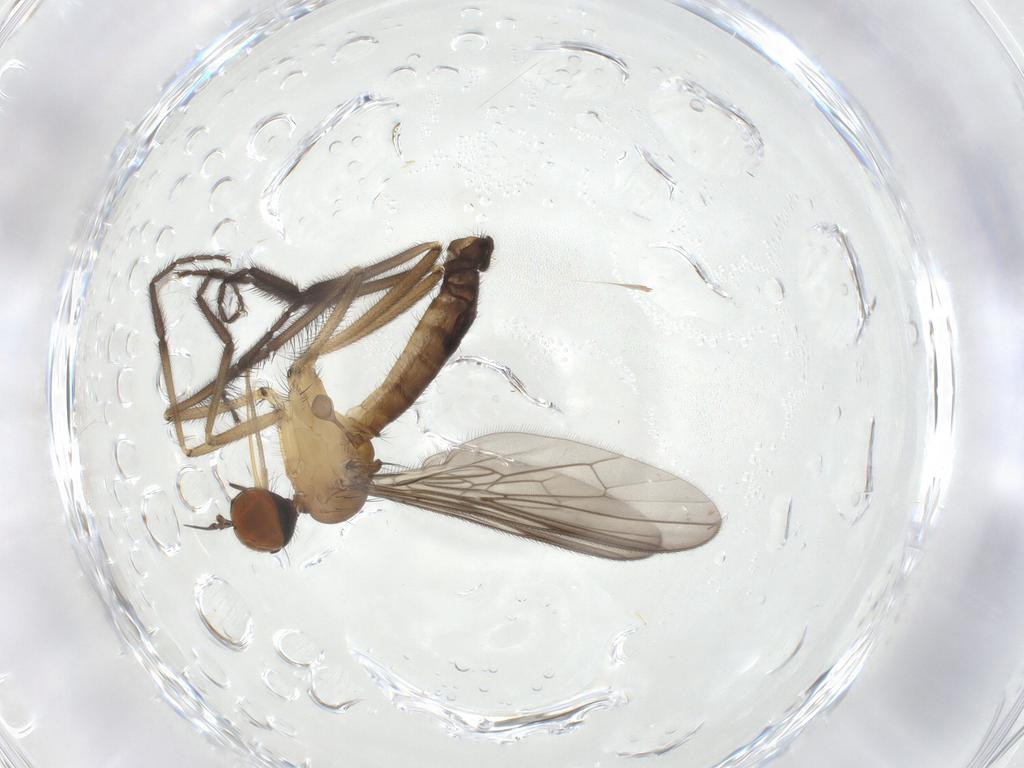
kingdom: Animalia
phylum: Arthropoda
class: Insecta
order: Diptera
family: Empididae
